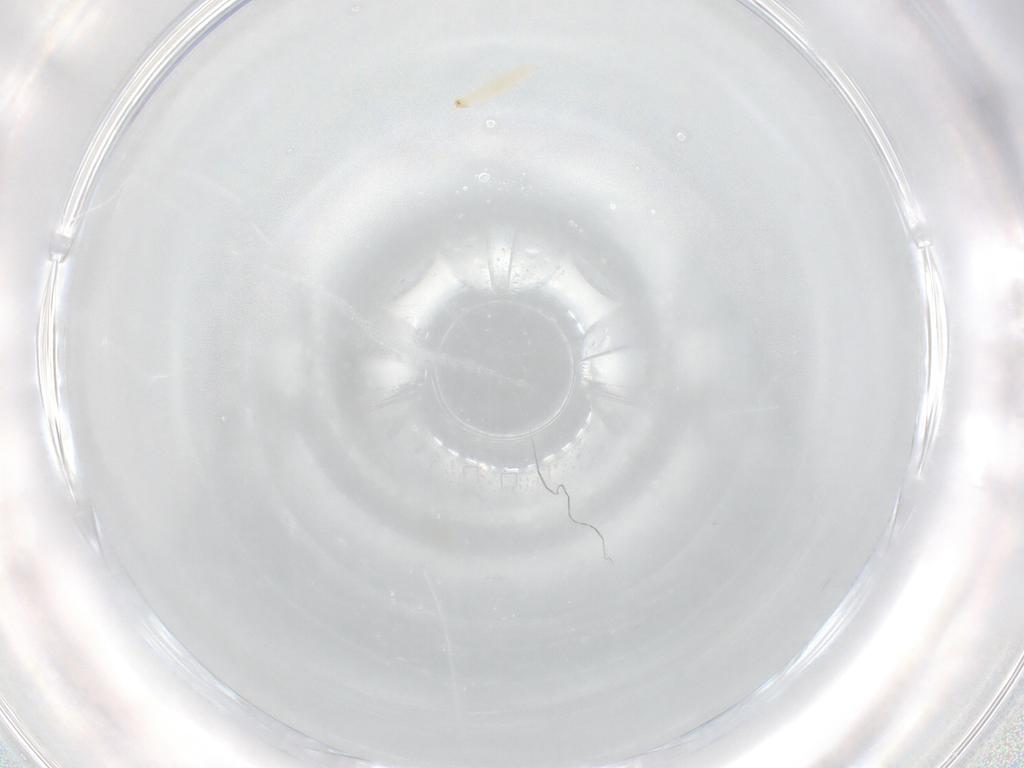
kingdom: Animalia
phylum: Arthropoda
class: Insecta
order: Coleoptera
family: Melyridae
